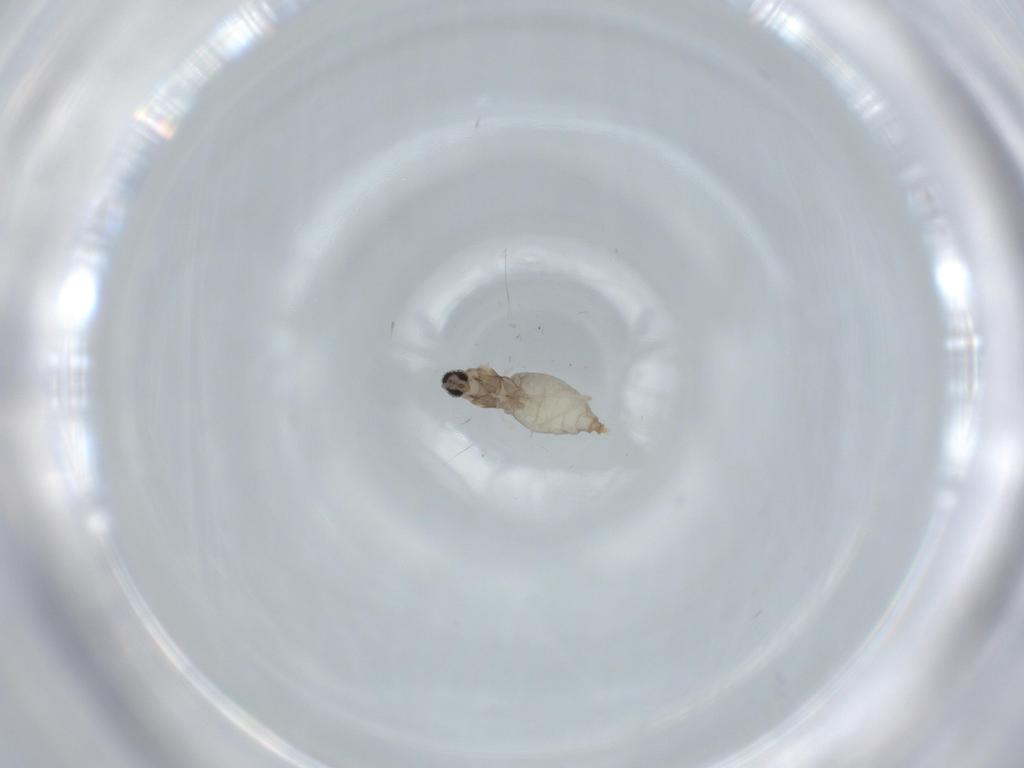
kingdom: Animalia
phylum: Arthropoda
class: Insecta
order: Diptera
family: Cecidomyiidae
